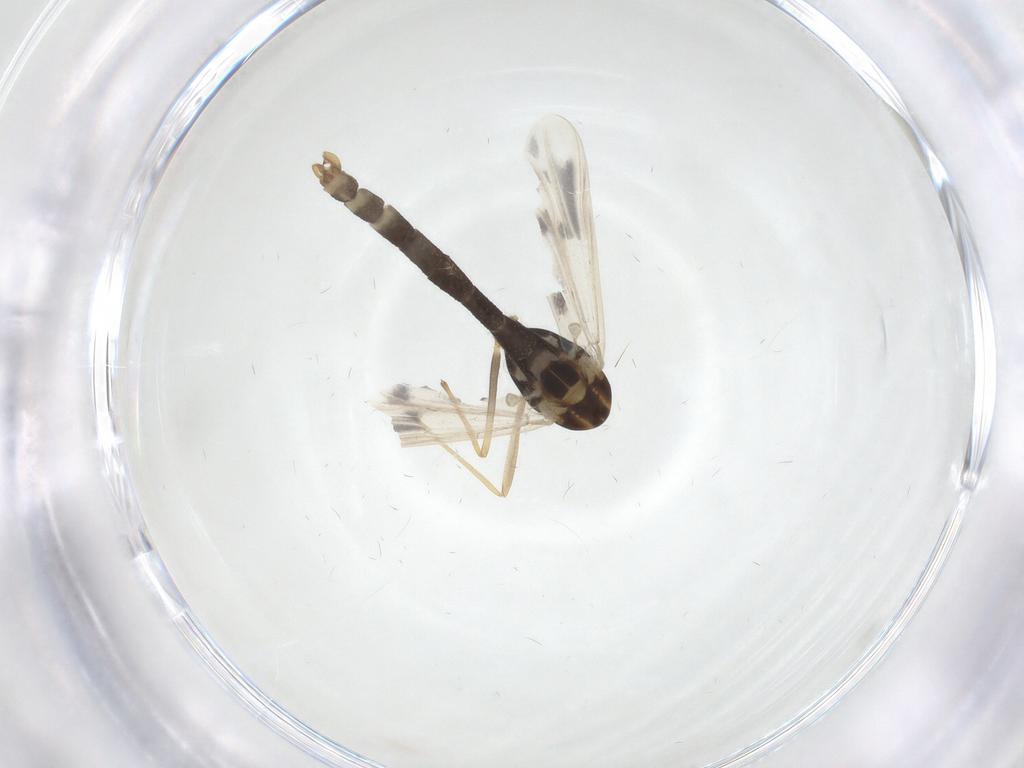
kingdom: Animalia
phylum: Arthropoda
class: Insecta
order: Diptera
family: Chironomidae
